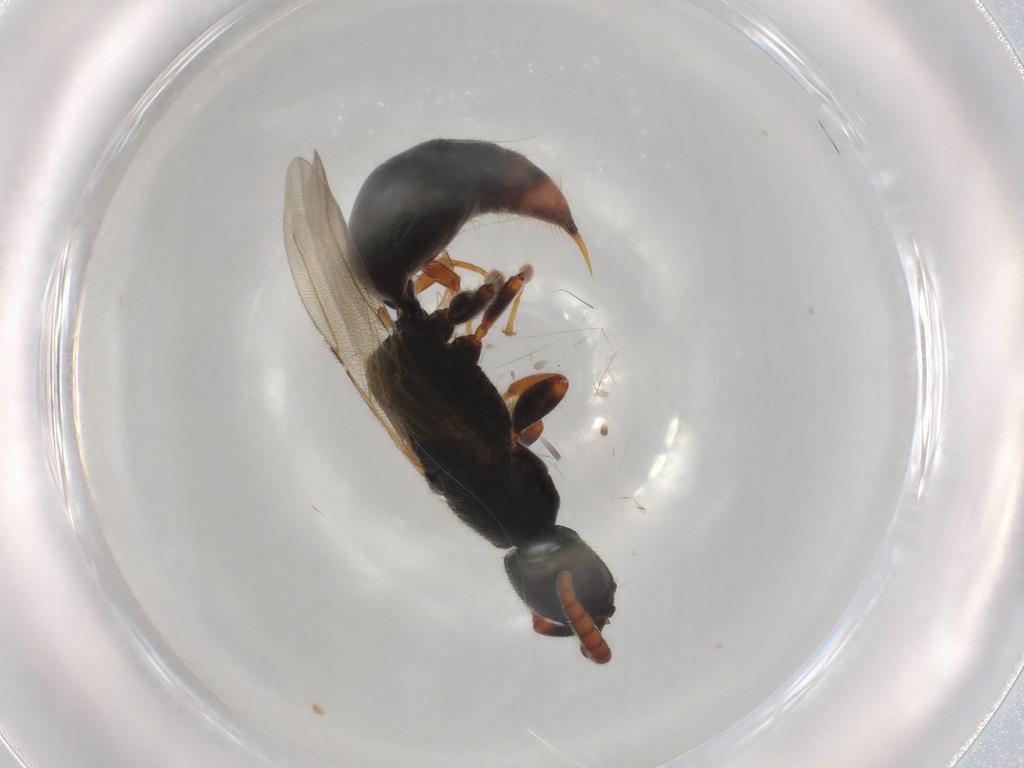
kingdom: Animalia
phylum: Arthropoda
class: Insecta
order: Hymenoptera
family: Bethylidae
